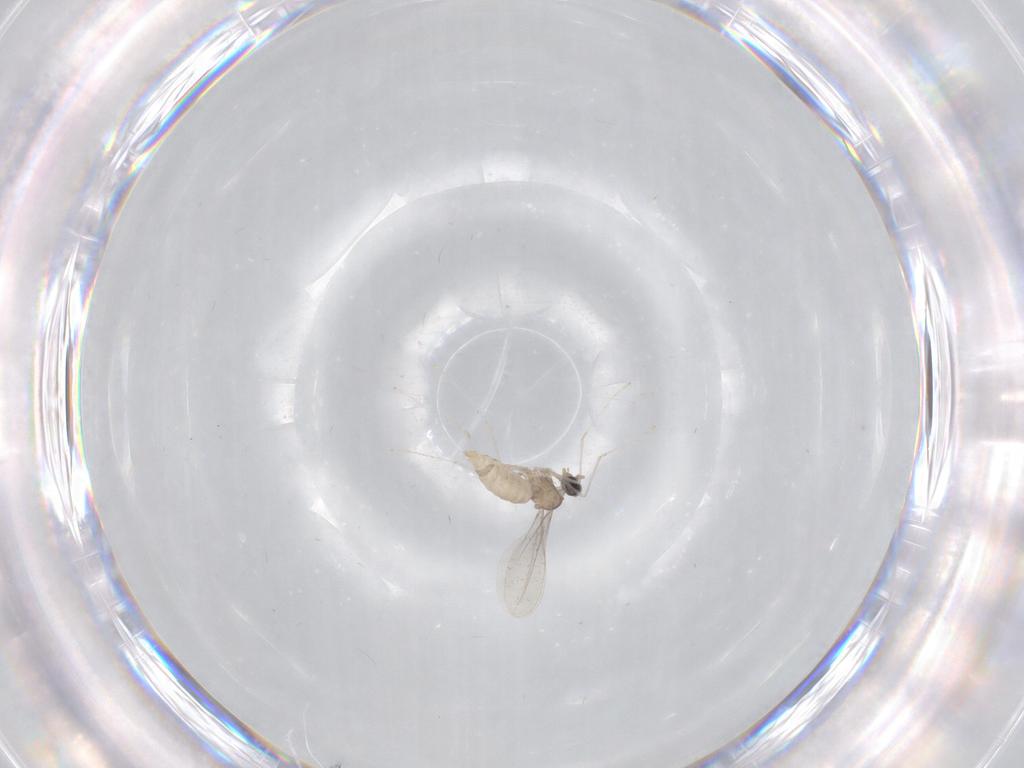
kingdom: Animalia
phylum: Arthropoda
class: Insecta
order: Diptera
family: Cecidomyiidae
